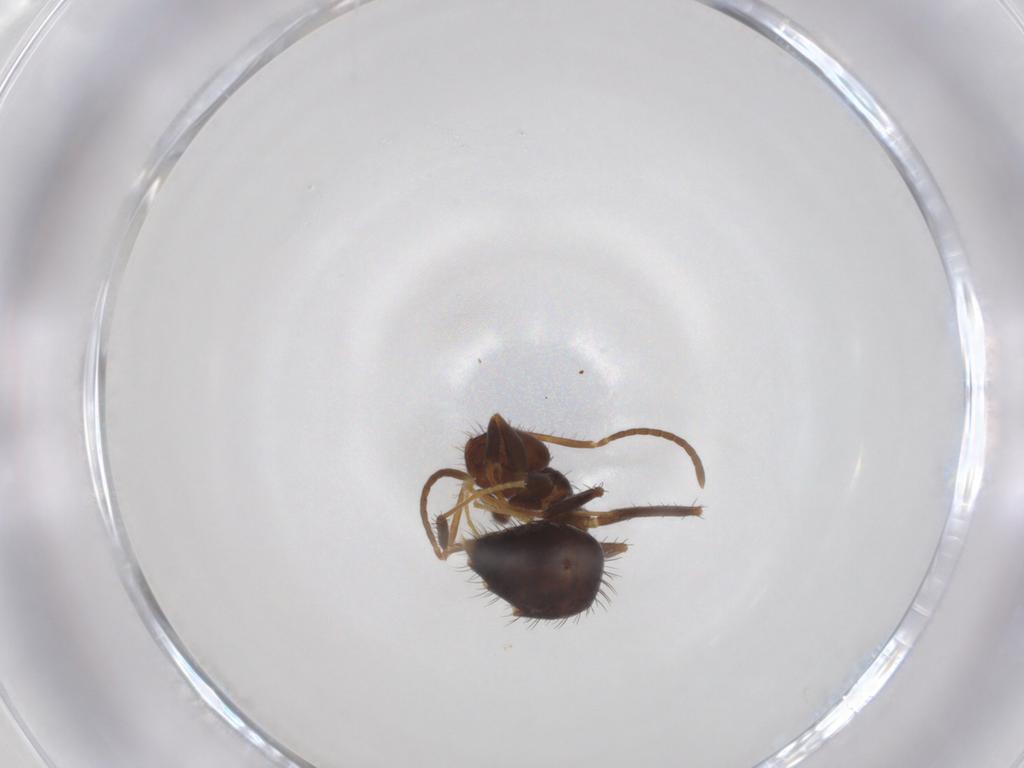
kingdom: Animalia
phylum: Arthropoda
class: Insecta
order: Hymenoptera
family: Formicidae
